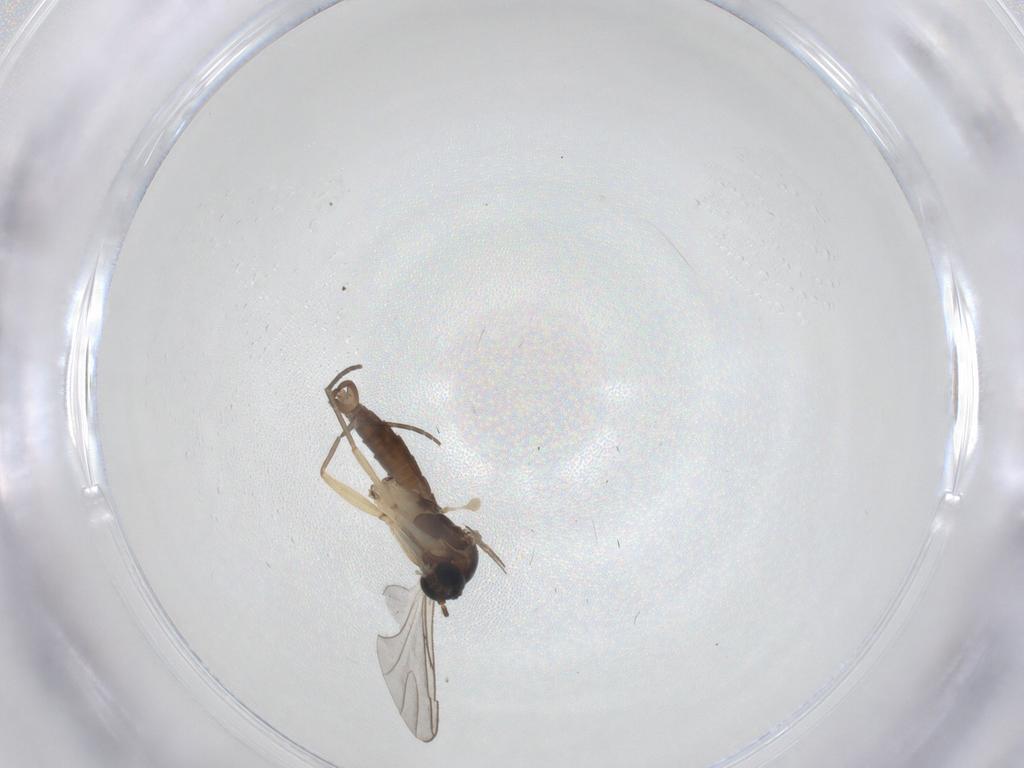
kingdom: Animalia
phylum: Arthropoda
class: Insecta
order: Diptera
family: Sciaridae
